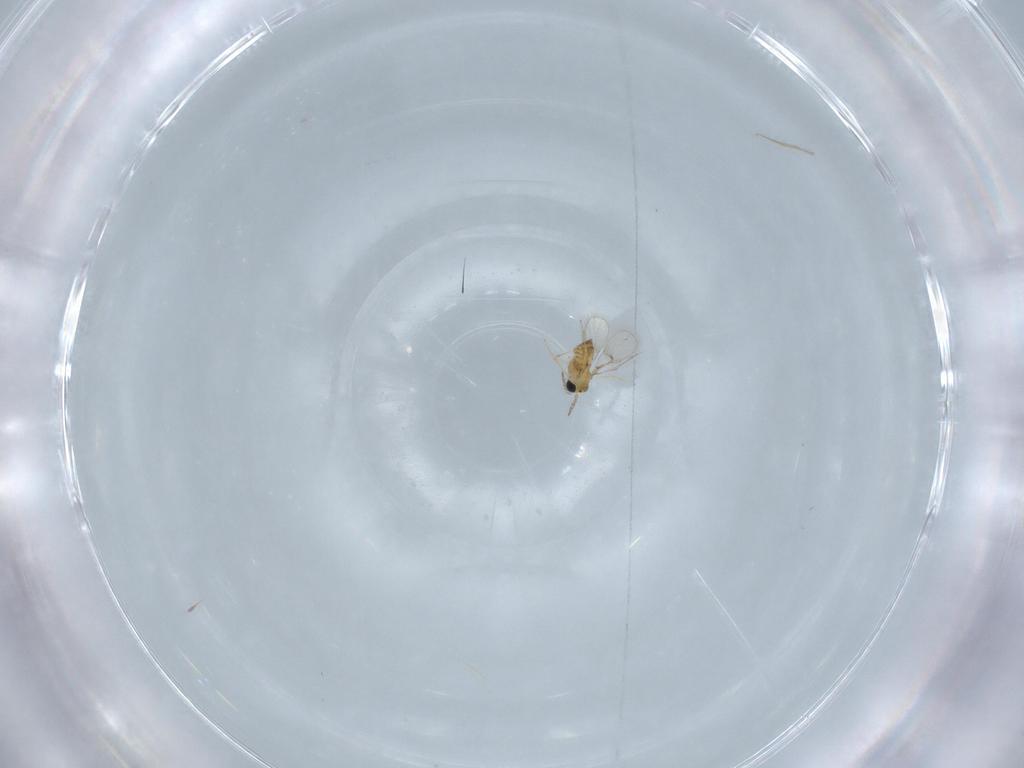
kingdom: Animalia
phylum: Arthropoda
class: Insecta
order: Hymenoptera
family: Trichogrammatidae
